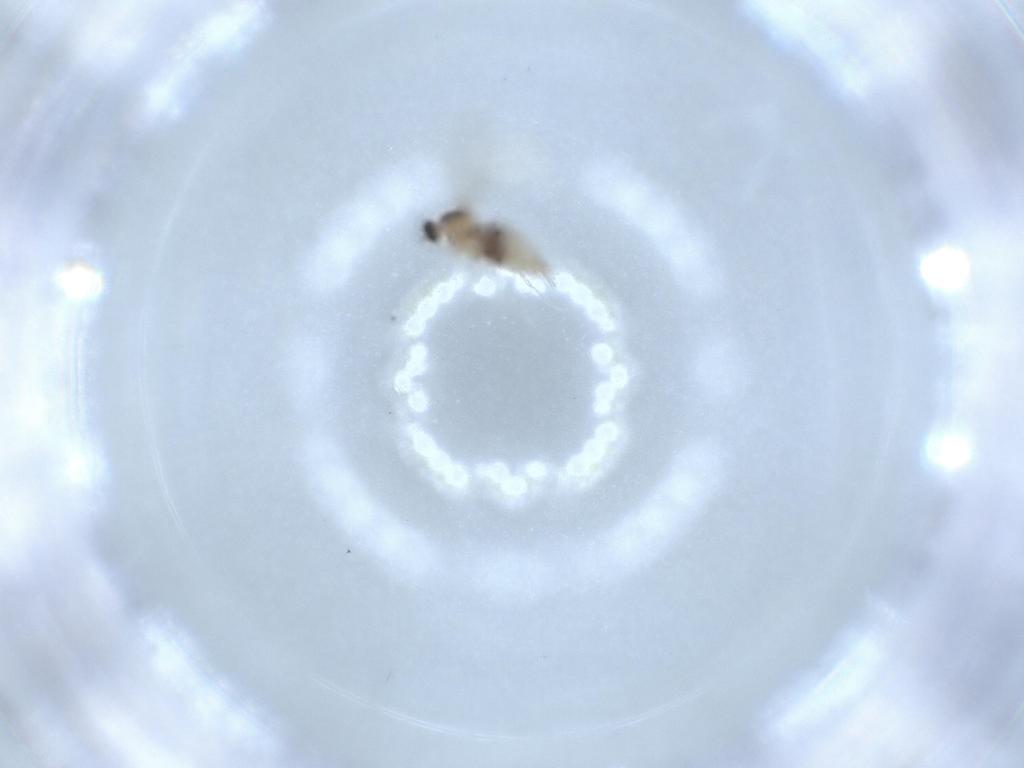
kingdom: Animalia
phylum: Arthropoda
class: Insecta
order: Diptera
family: Cecidomyiidae
